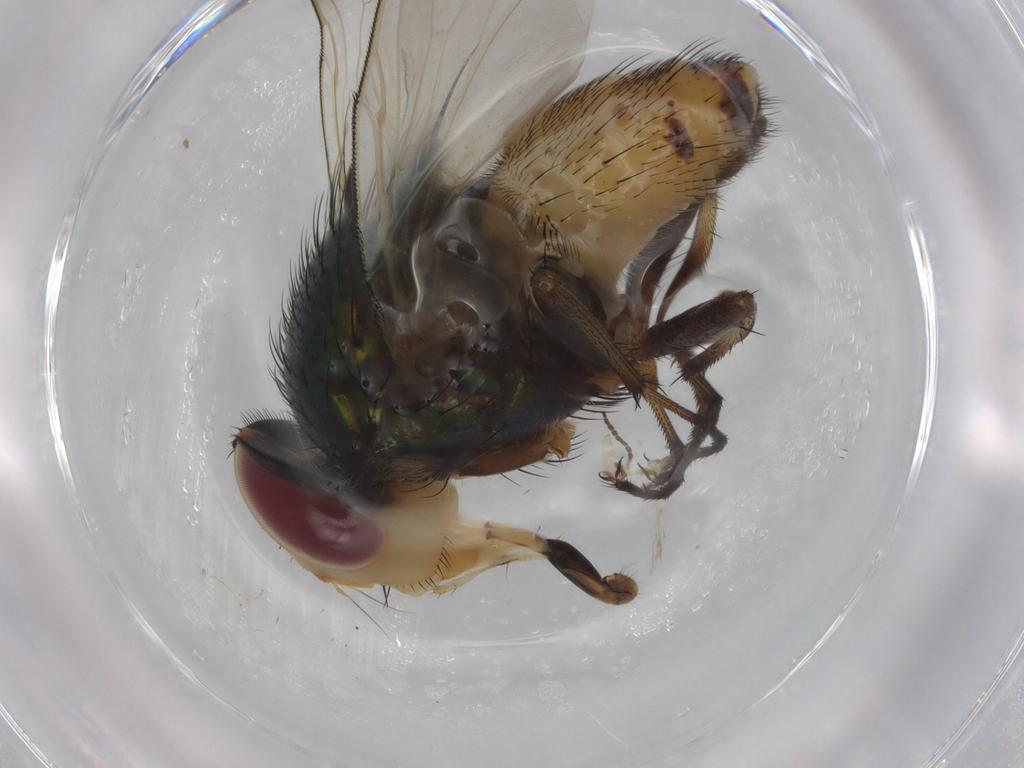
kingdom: Animalia
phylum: Arthropoda
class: Insecta
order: Diptera
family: Calliphoridae
